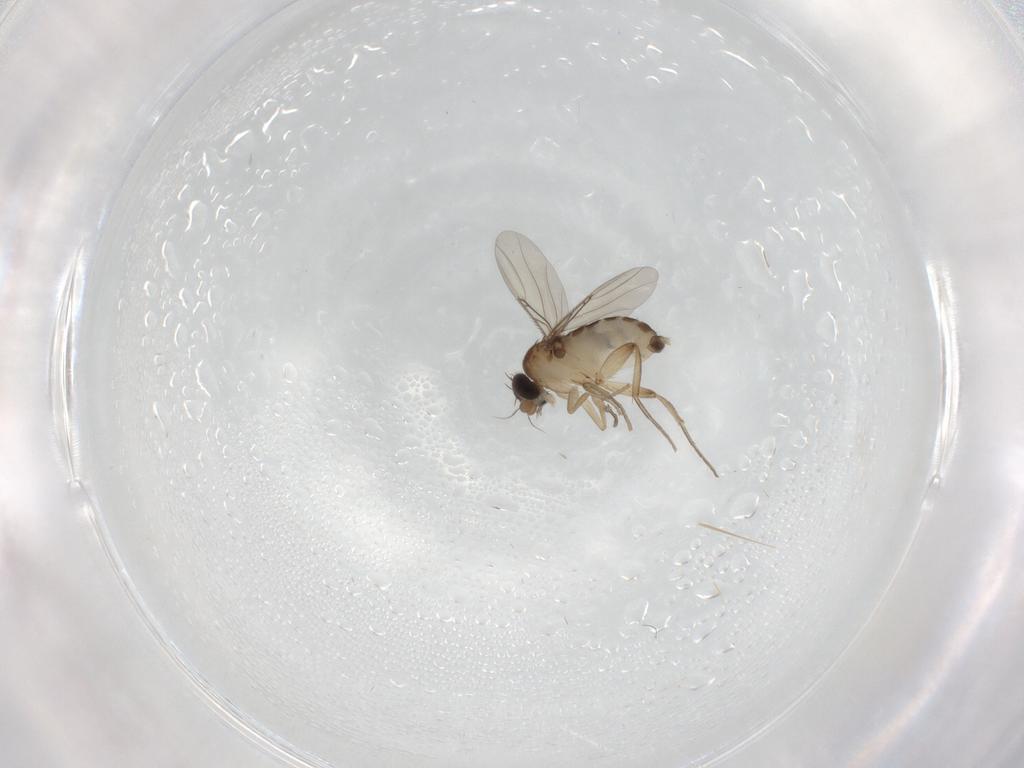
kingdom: Animalia
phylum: Arthropoda
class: Insecta
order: Diptera
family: Phoridae
